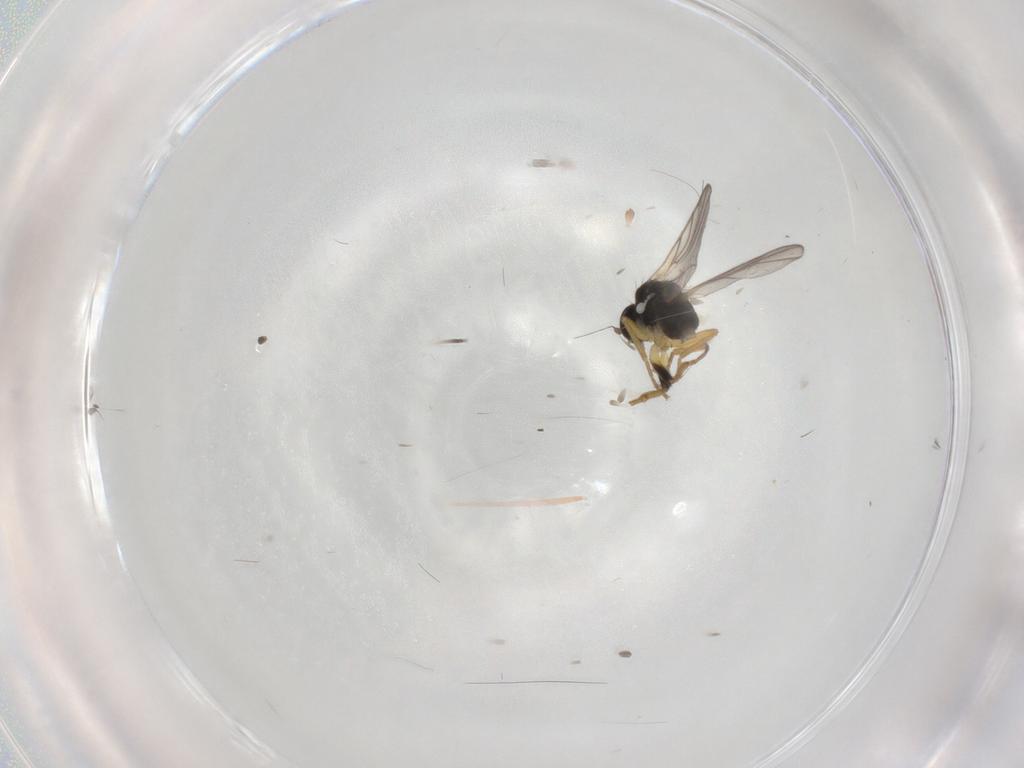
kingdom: Animalia
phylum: Arthropoda
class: Insecta
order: Diptera
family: Hybotidae
